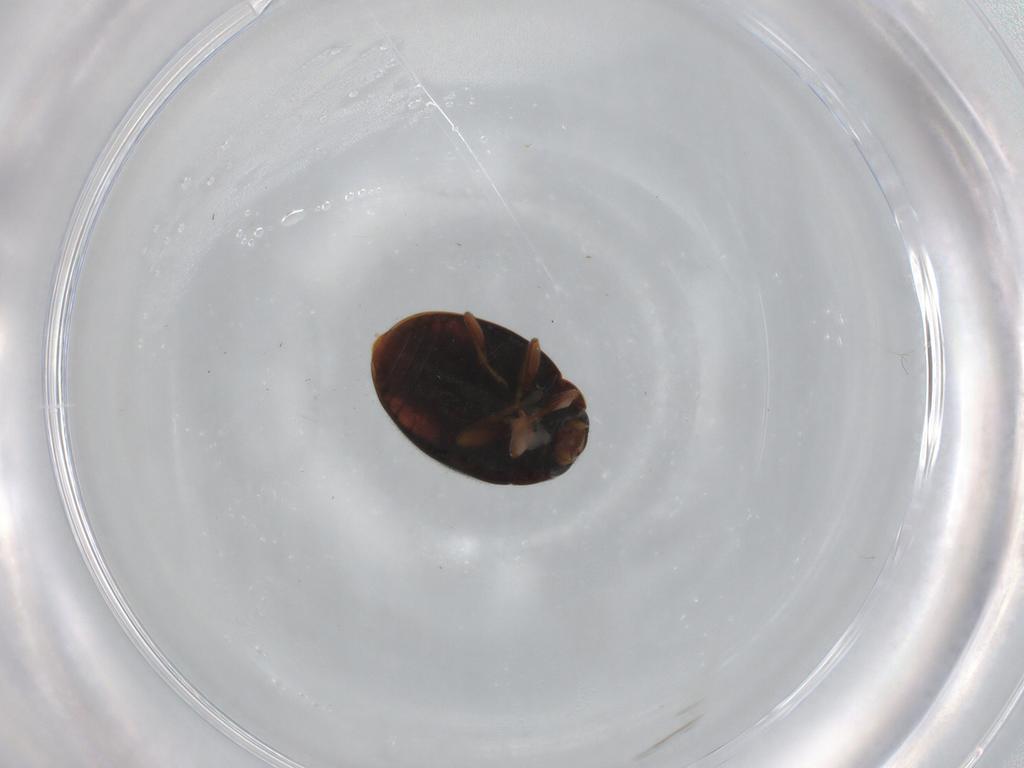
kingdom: Animalia
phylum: Arthropoda
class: Insecta
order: Coleoptera
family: Coccinellidae
